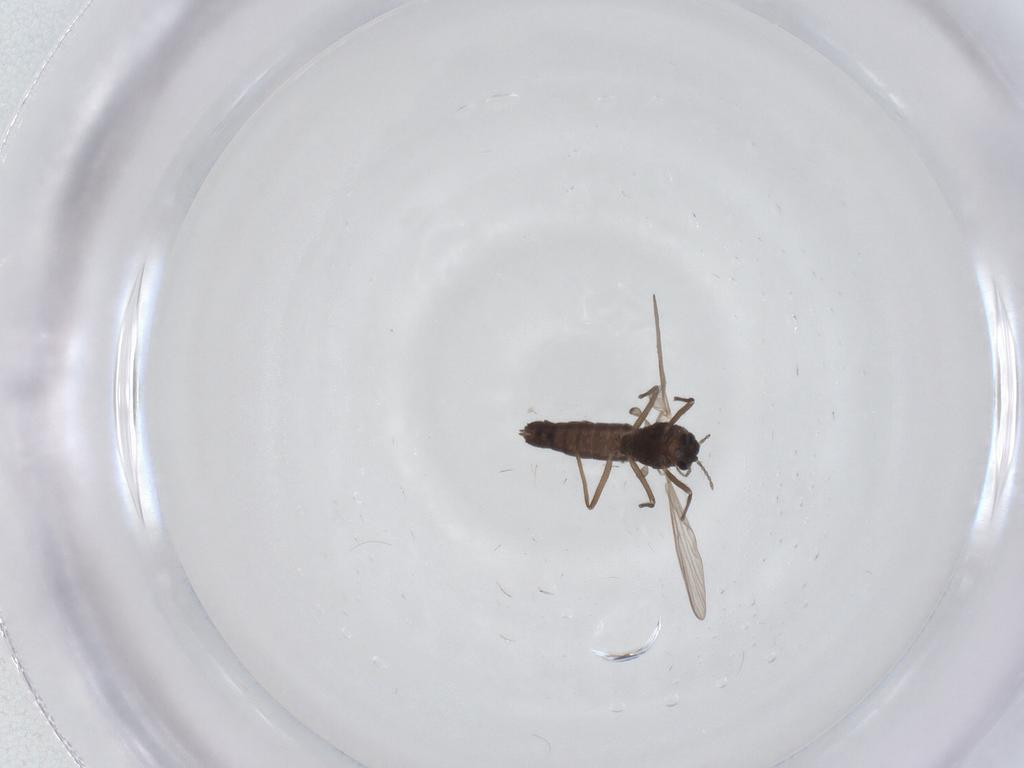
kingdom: Animalia
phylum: Arthropoda
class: Insecta
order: Diptera
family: Chironomidae
